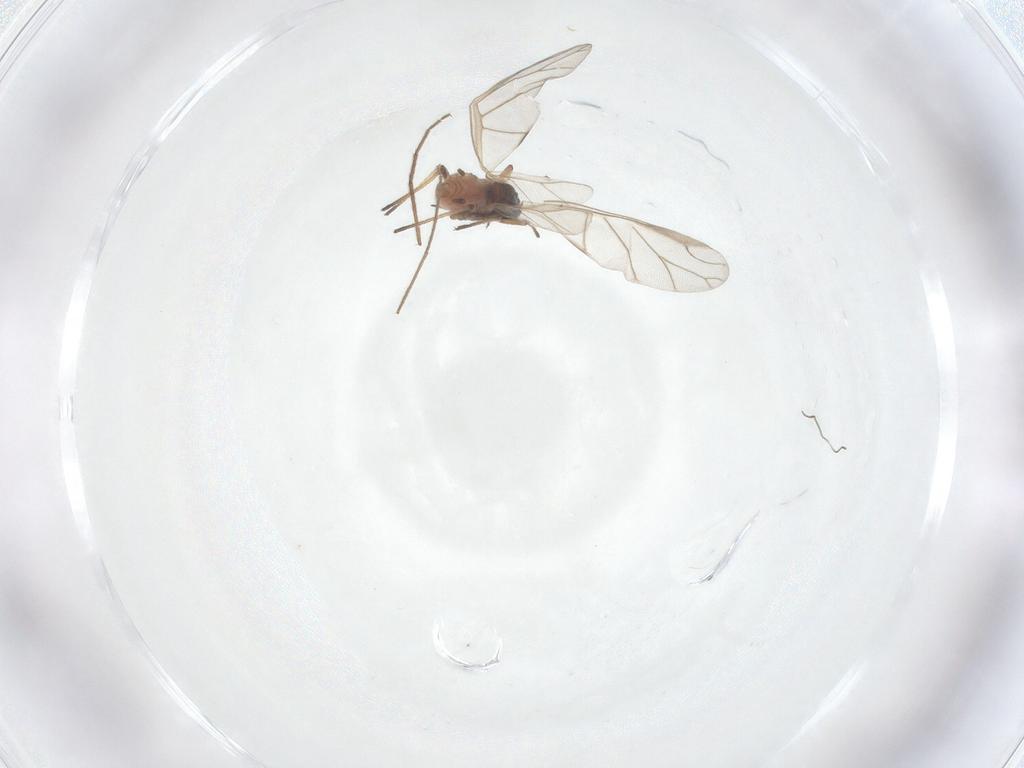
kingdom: Animalia
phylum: Arthropoda
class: Insecta
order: Hemiptera
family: Aphididae
